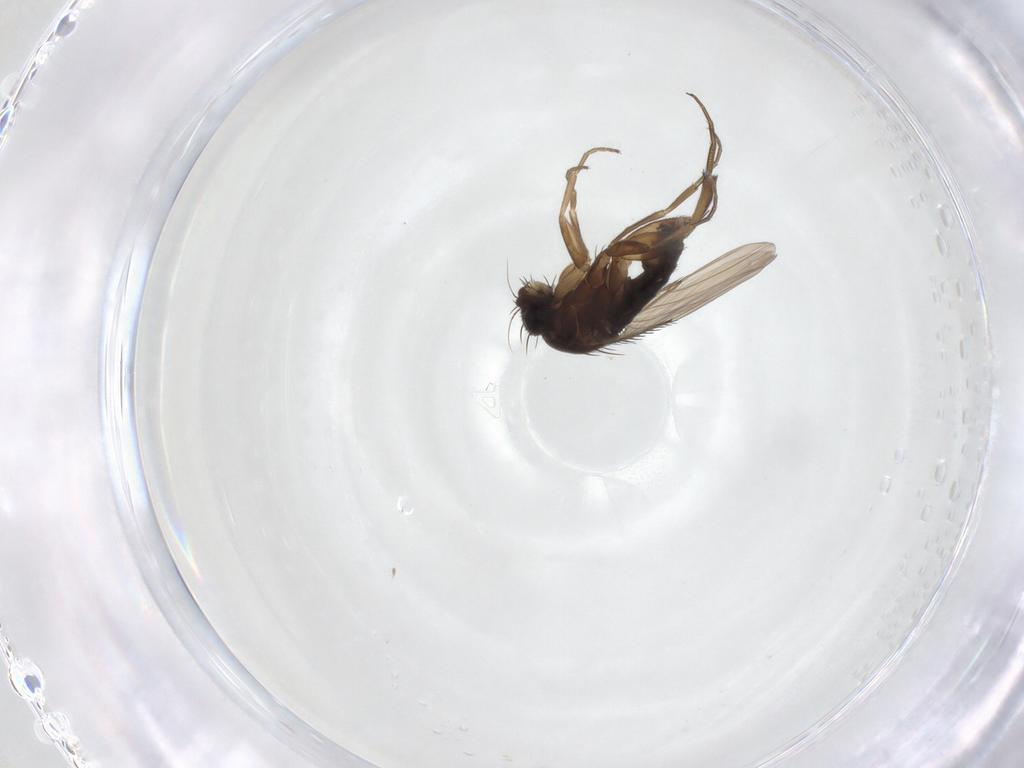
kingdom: Animalia
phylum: Arthropoda
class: Insecta
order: Diptera
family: Phoridae
